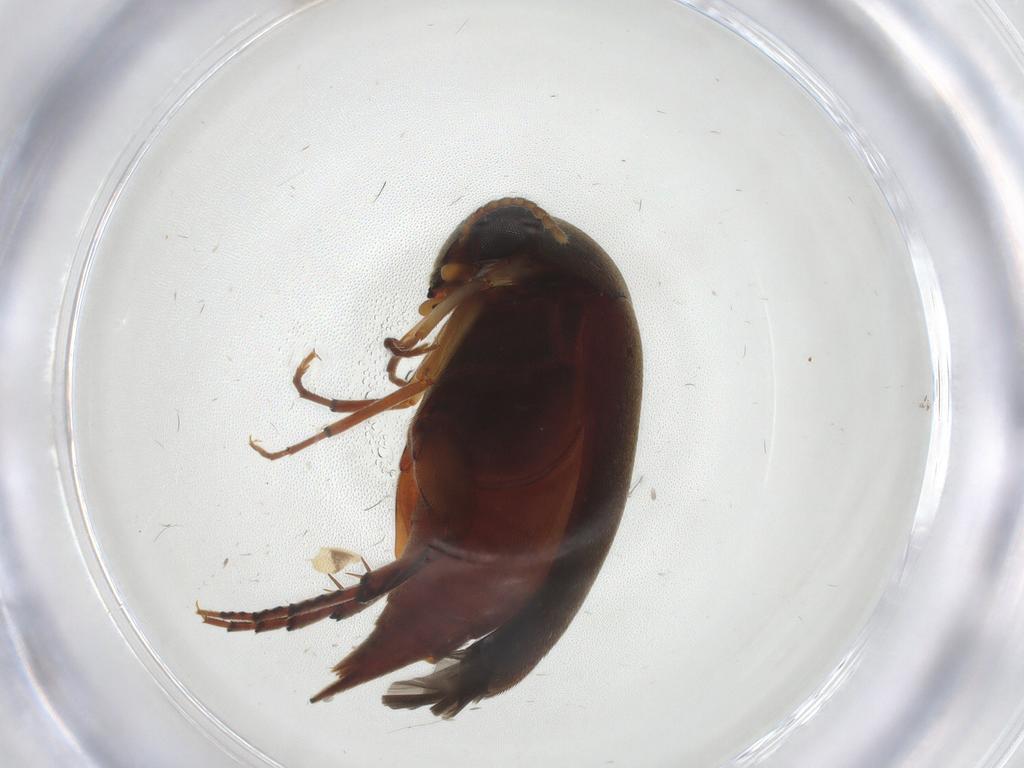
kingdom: Animalia
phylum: Arthropoda
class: Insecta
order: Coleoptera
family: Mordellidae
